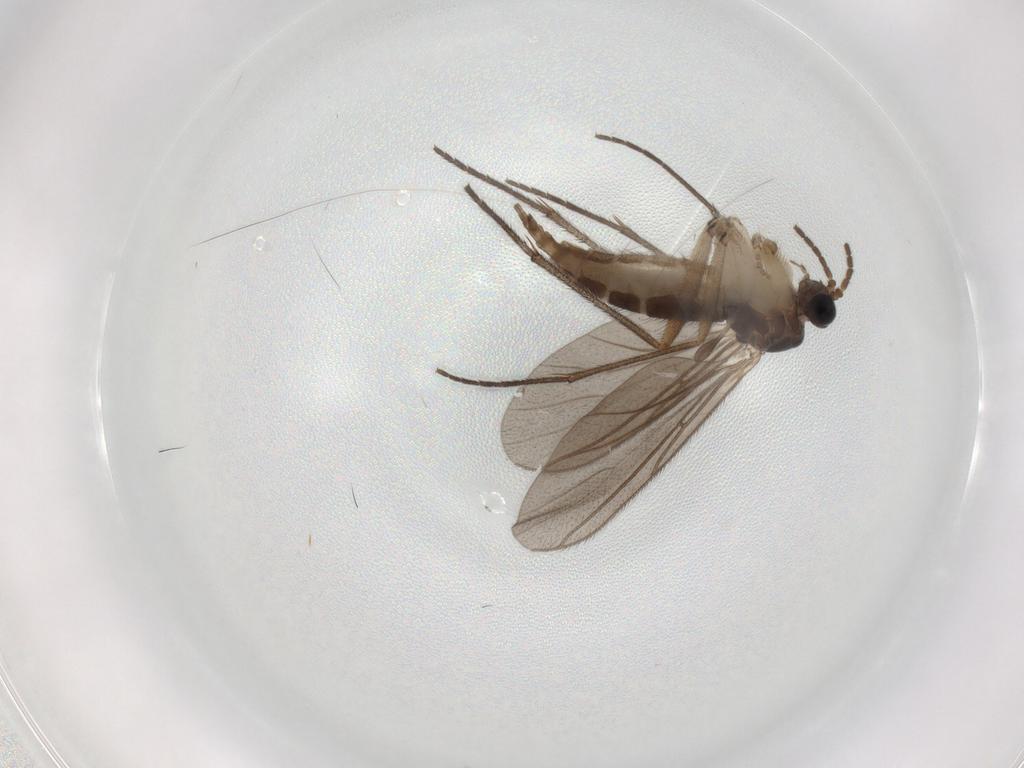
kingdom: Animalia
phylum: Arthropoda
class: Insecta
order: Diptera
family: Sciaridae
